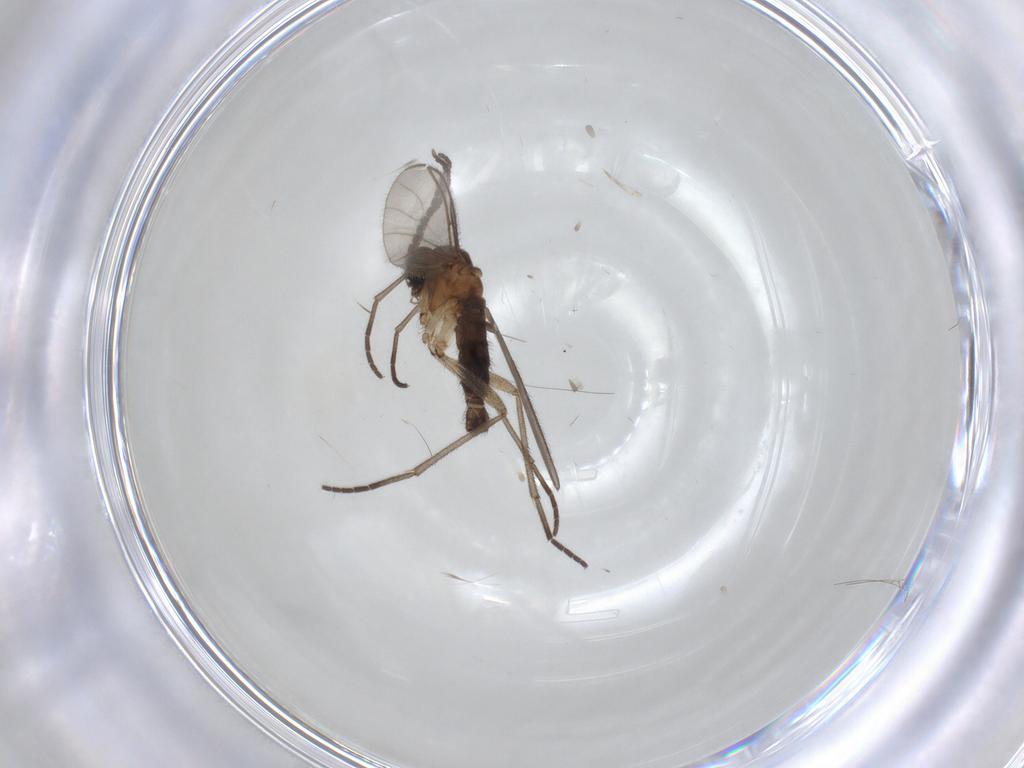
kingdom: Animalia
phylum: Arthropoda
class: Insecta
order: Diptera
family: Sciaridae
